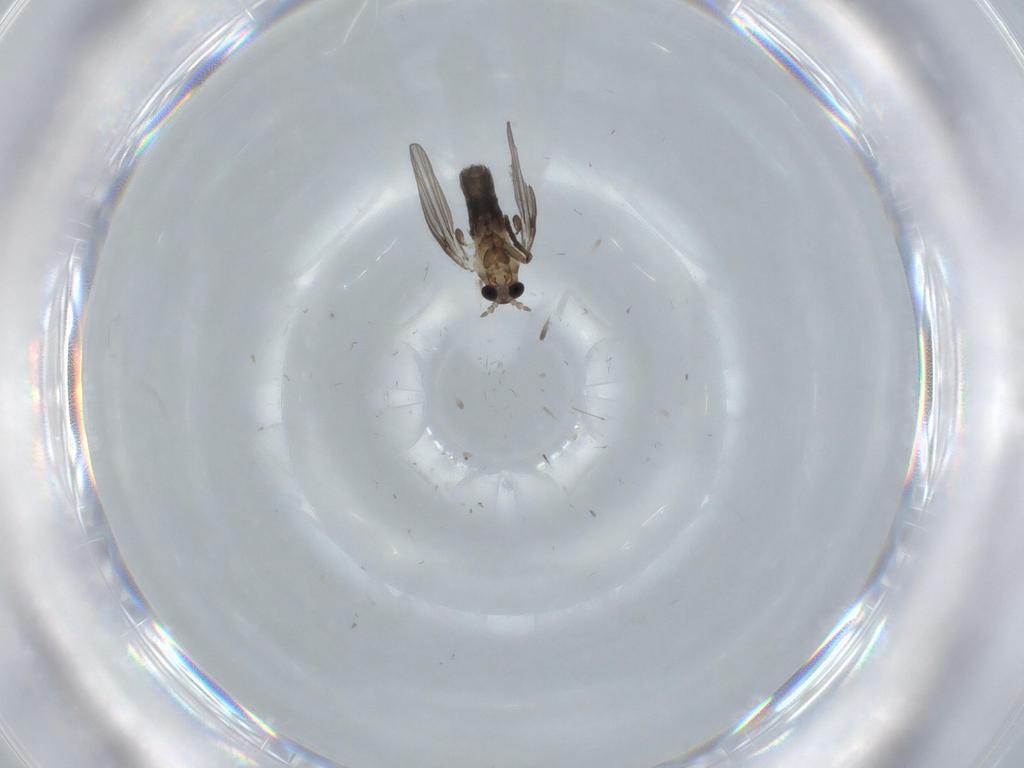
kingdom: Animalia
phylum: Arthropoda
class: Insecta
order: Diptera
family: Psychodidae
